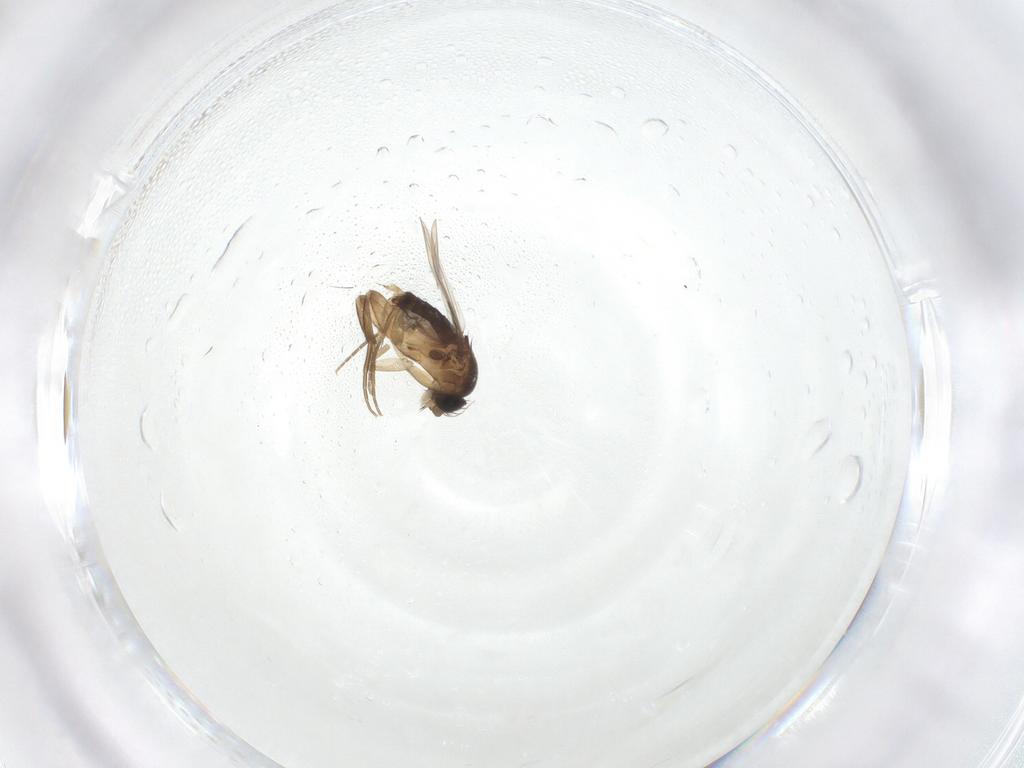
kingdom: Animalia
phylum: Arthropoda
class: Insecta
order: Diptera
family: Phoridae
